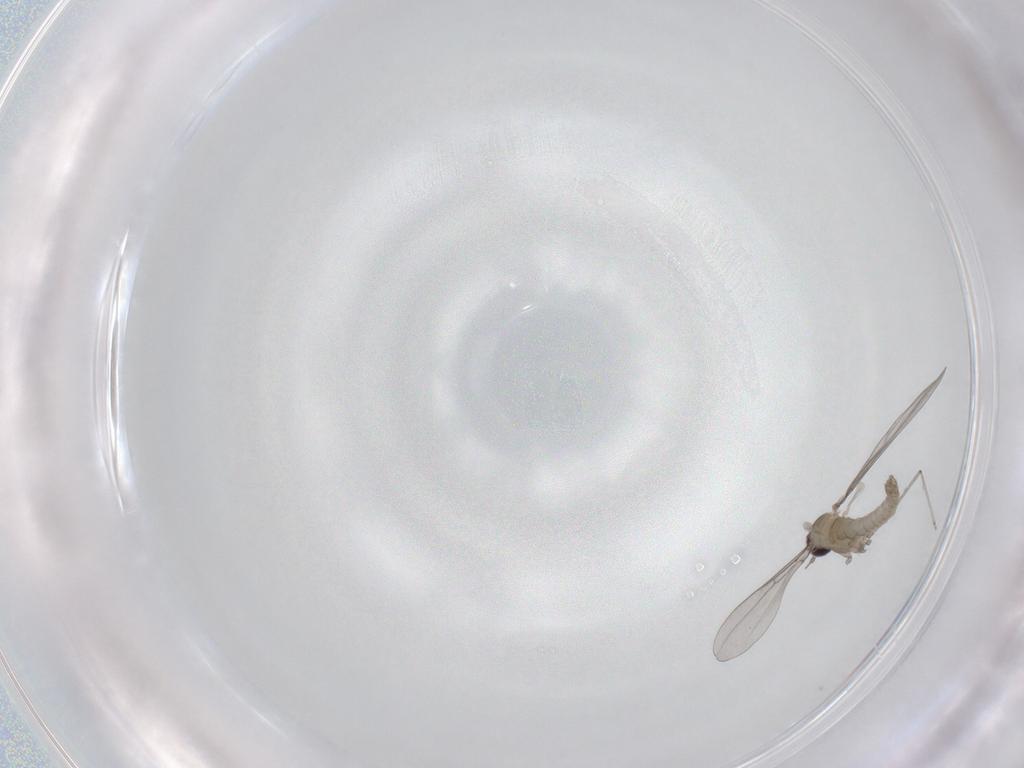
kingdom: Animalia
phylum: Arthropoda
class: Insecta
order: Diptera
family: Cecidomyiidae
